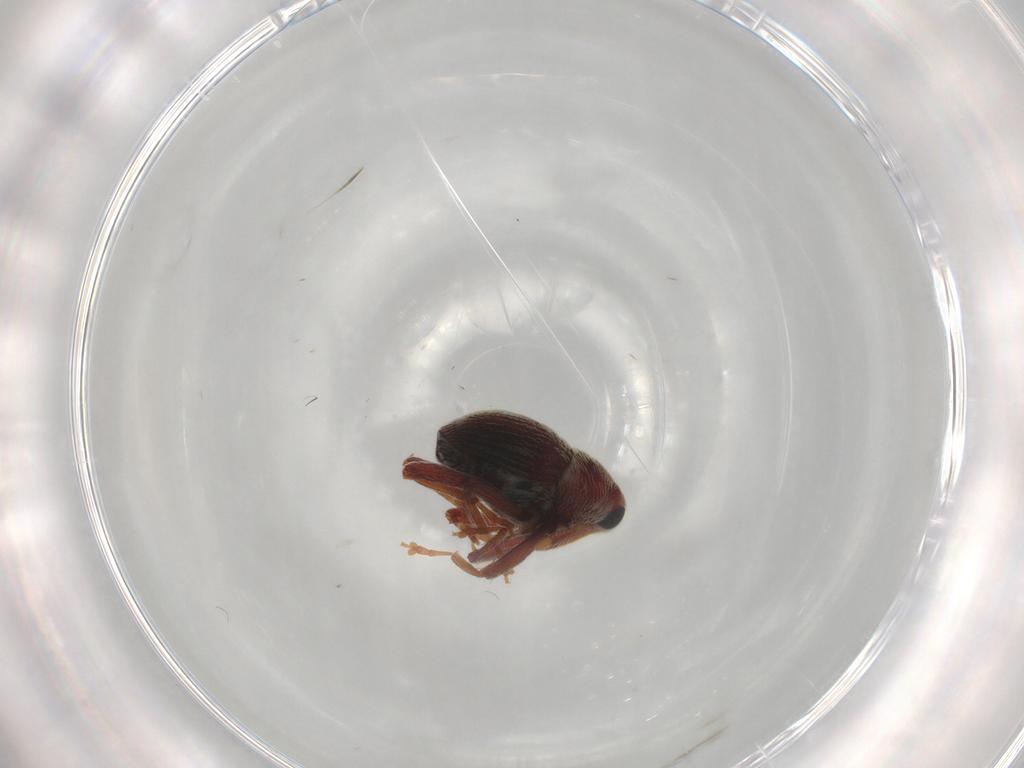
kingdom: Animalia
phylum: Arthropoda
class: Insecta
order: Coleoptera
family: Curculionidae
